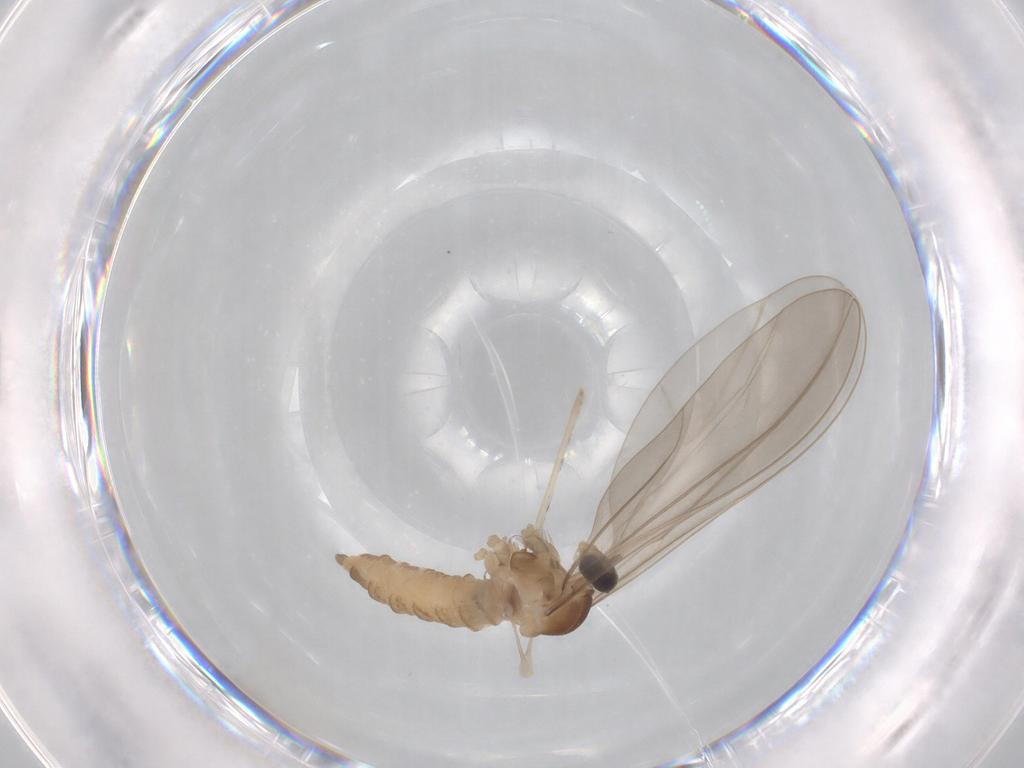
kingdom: Animalia
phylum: Arthropoda
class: Insecta
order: Diptera
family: Cecidomyiidae
